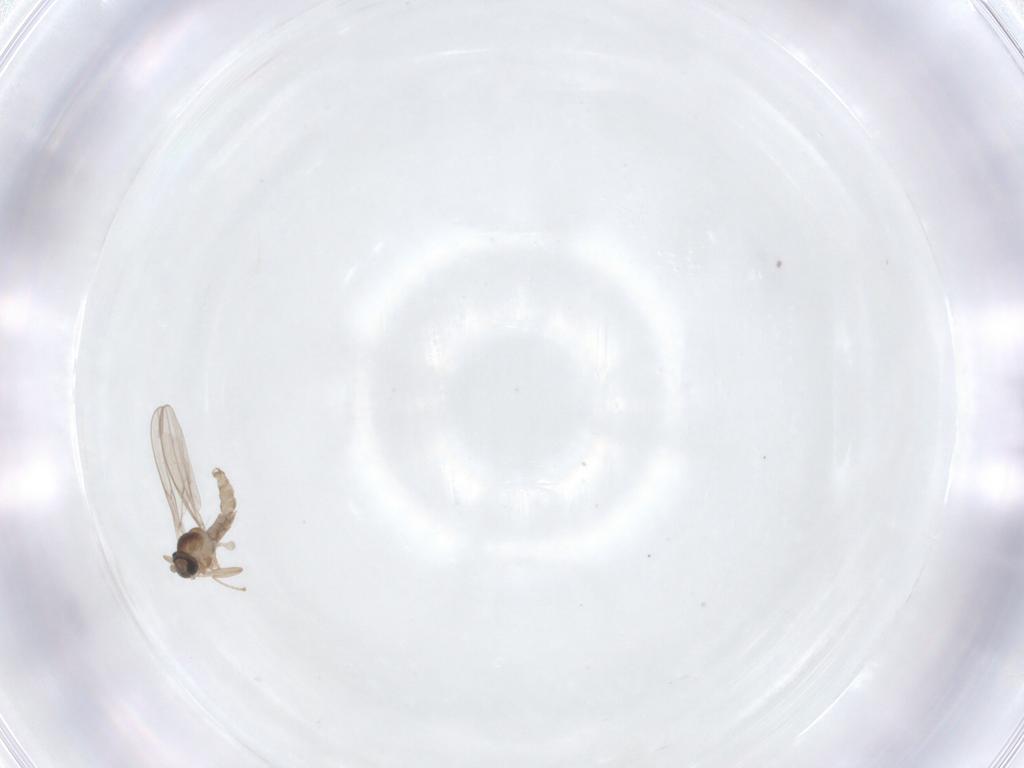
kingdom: Animalia
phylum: Arthropoda
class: Insecta
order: Diptera
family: Cecidomyiidae
